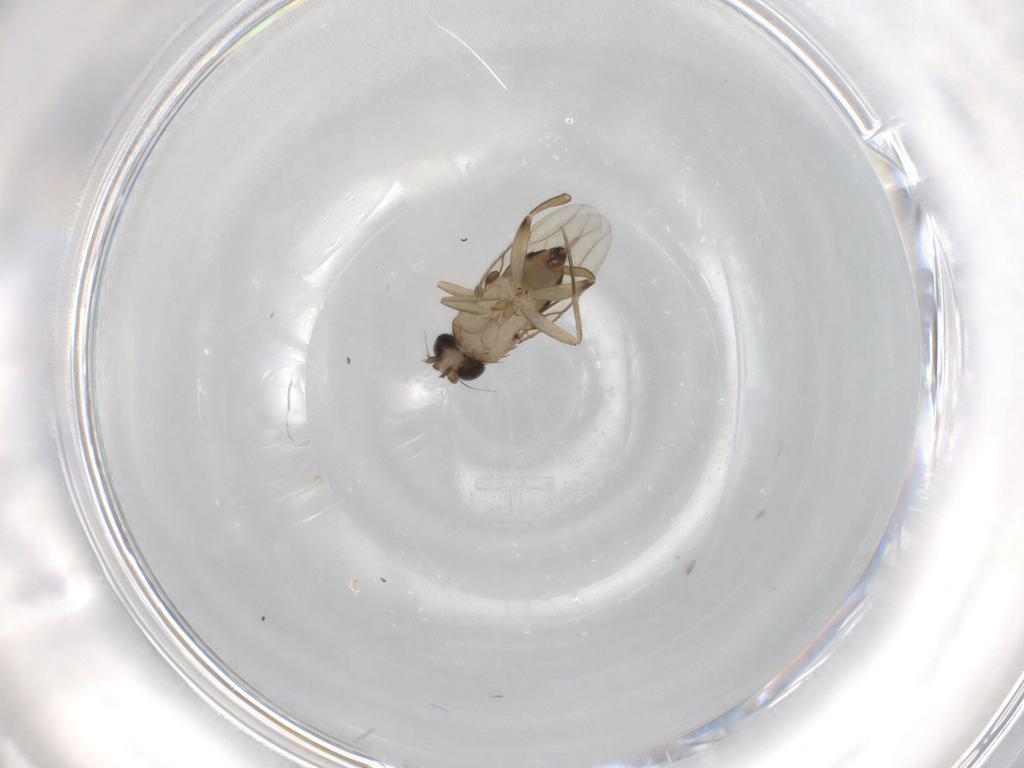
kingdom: Animalia
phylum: Arthropoda
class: Insecta
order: Diptera
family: Phoridae
